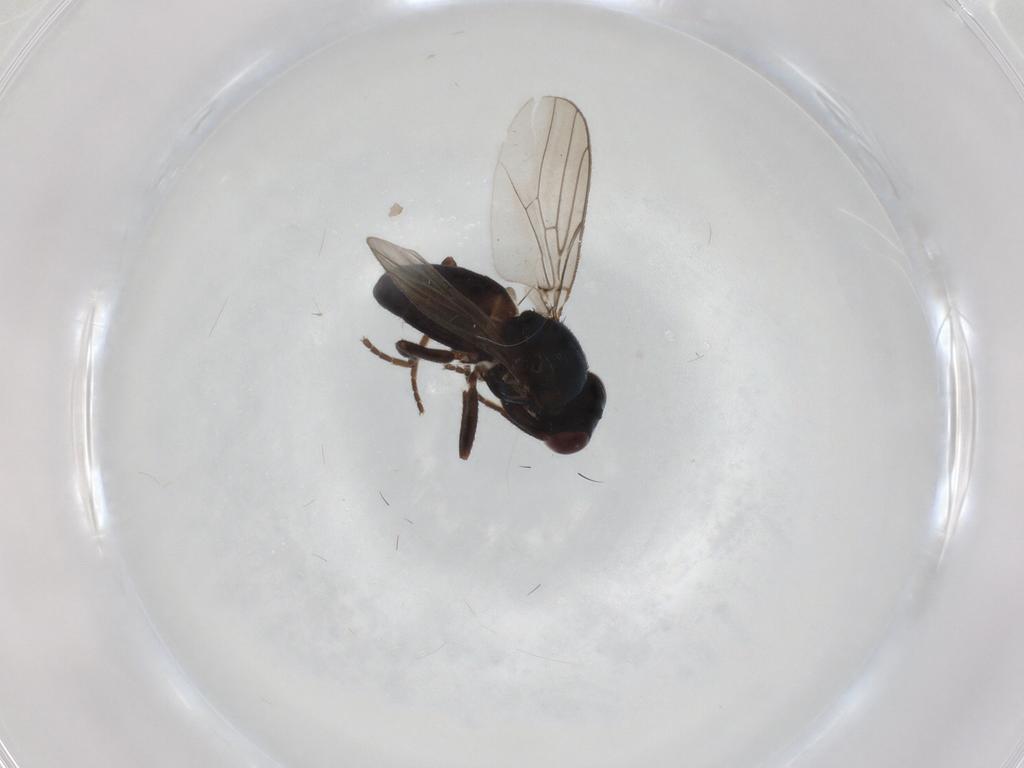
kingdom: Animalia
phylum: Arthropoda
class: Insecta
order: Diptera
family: Chloropidae
